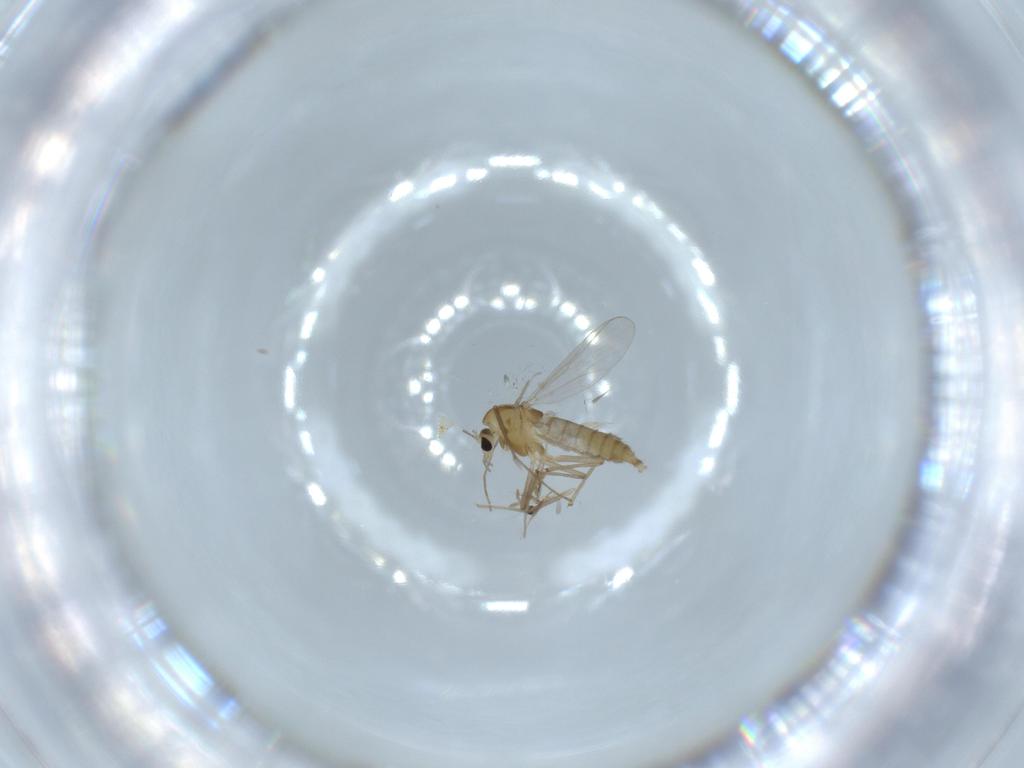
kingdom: Animalia
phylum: Arthropoda
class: Insecta
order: Diptera
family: Chironomidae
